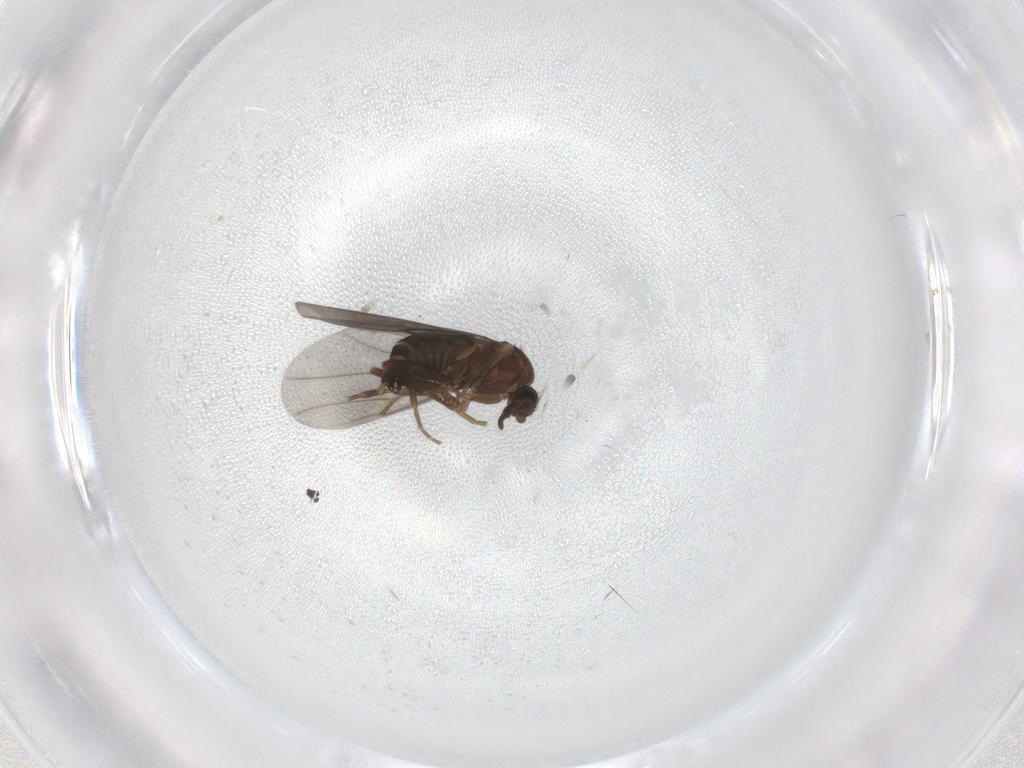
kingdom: Animalia
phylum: Arthropoda
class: Insecta
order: Diptera
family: Phoridae
